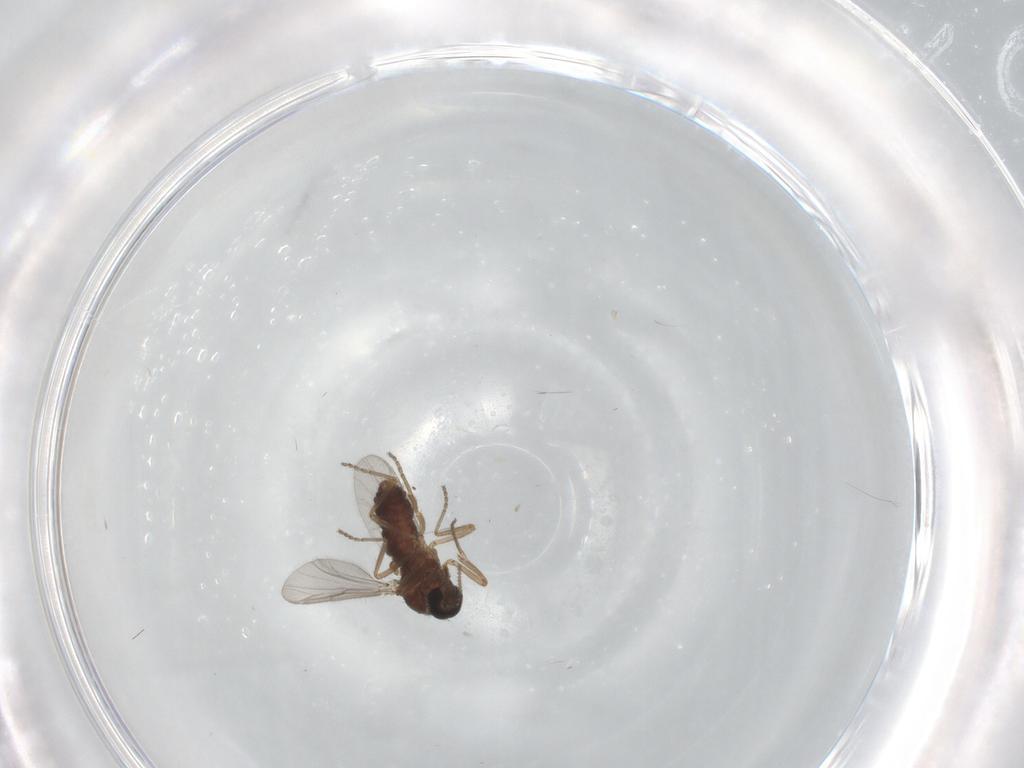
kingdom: Animalia
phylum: Arthropoda
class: Insecta
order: Diptera
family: Ceratopogonidae
